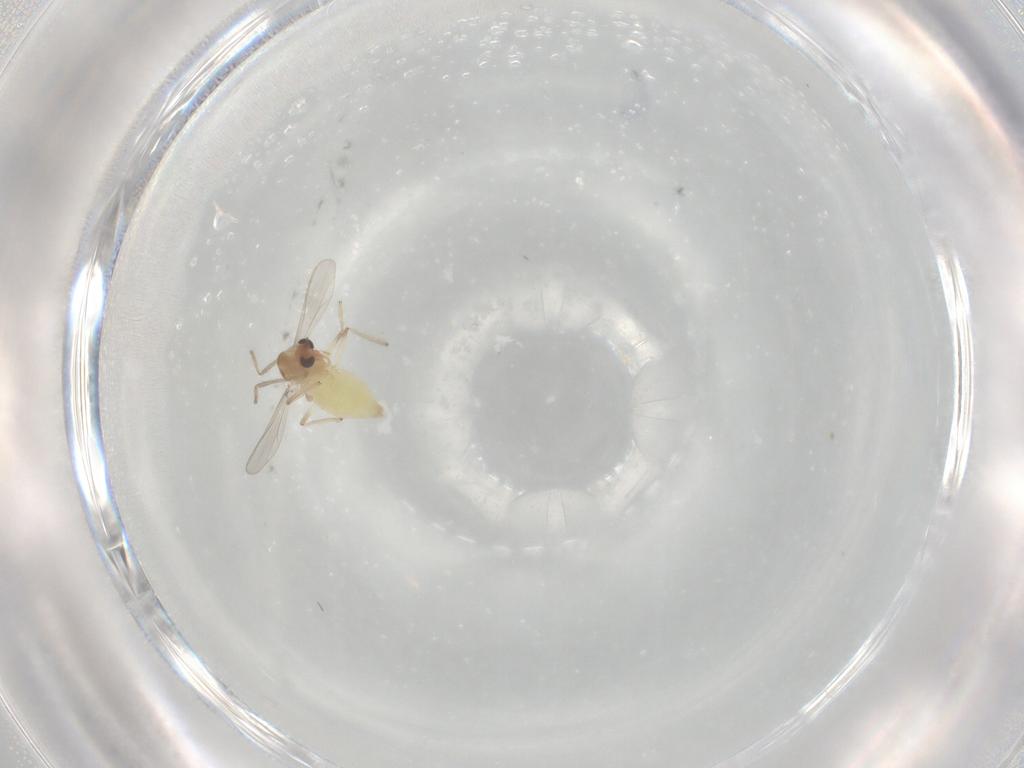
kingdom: Animalia
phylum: Arthropoda
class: Insecta
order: Diptera
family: Chironomidae
